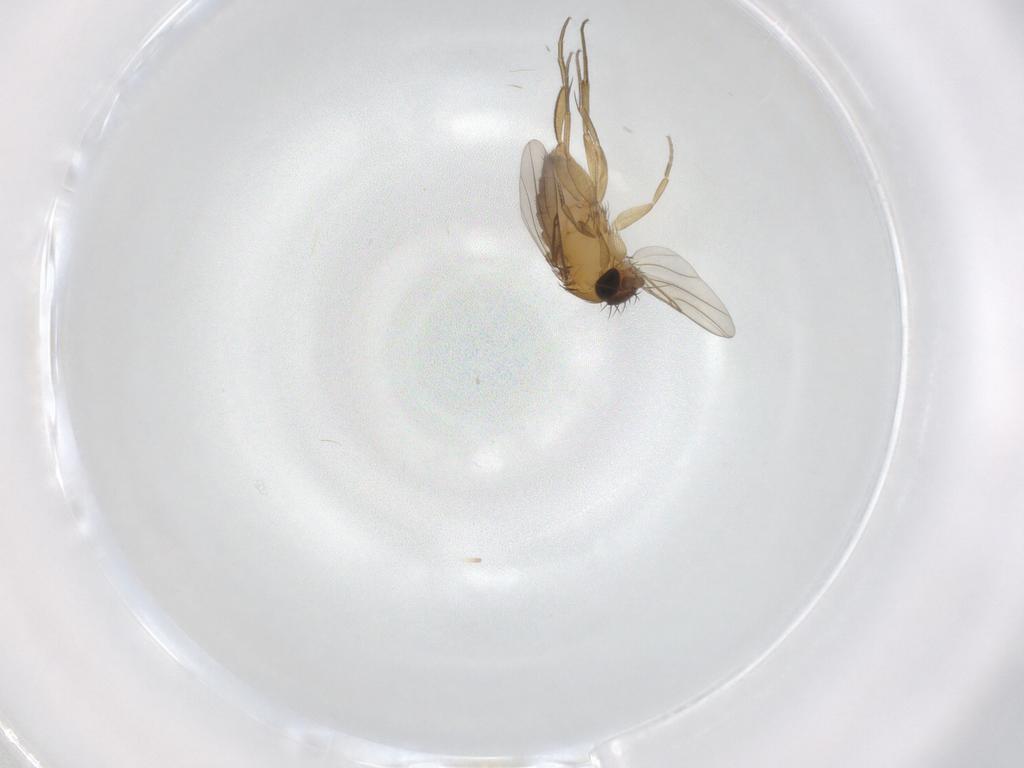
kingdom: Animalia
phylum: Arthropoda
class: Insecta
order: Diptera
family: Phoridae
